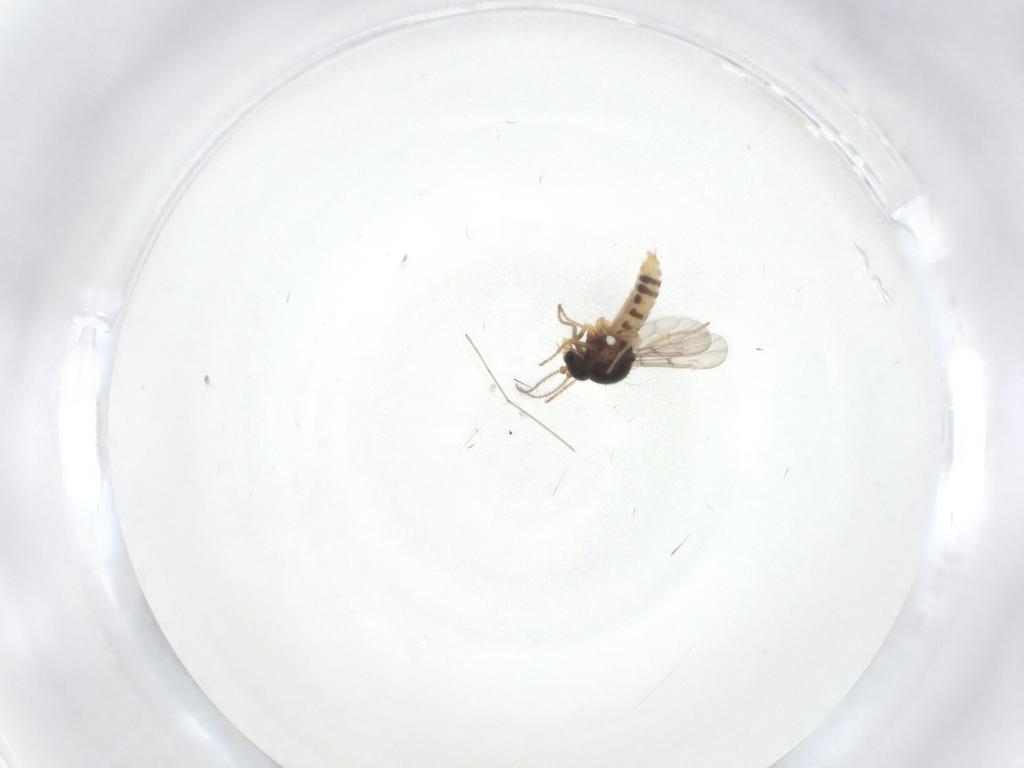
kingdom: Animalia
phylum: Arthropoda
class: Insecta
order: Diptera
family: Ceratopogonidae
